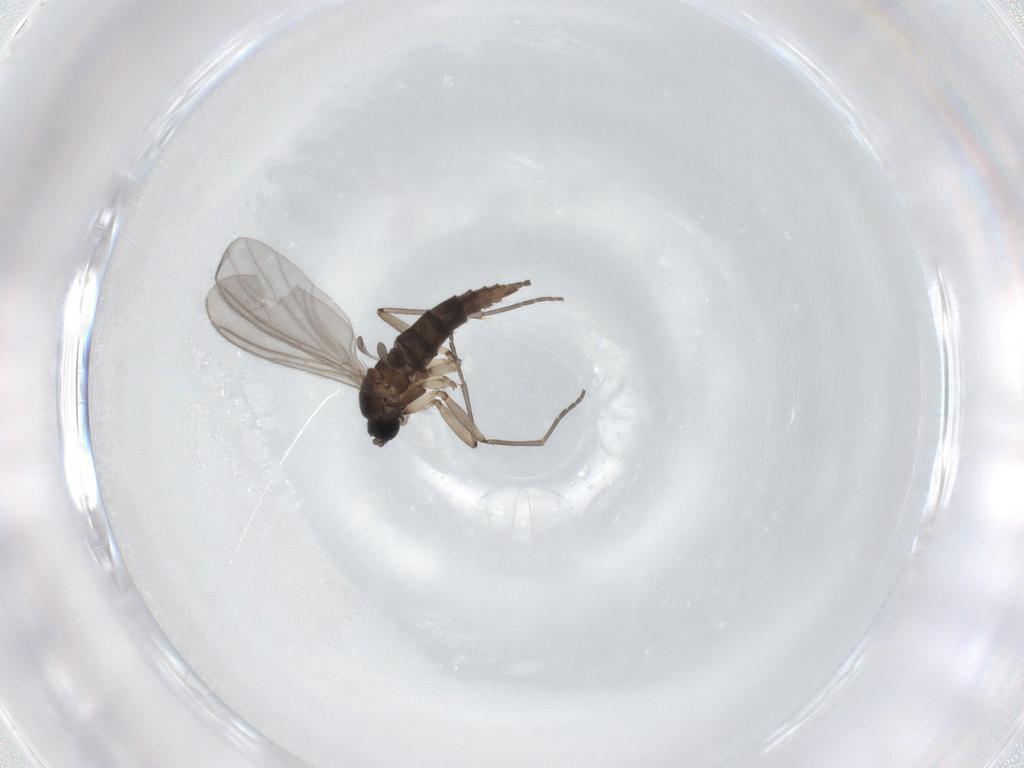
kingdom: Animalia
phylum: Arthropoda
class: Insecta
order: Diptera
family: Sciaridae
